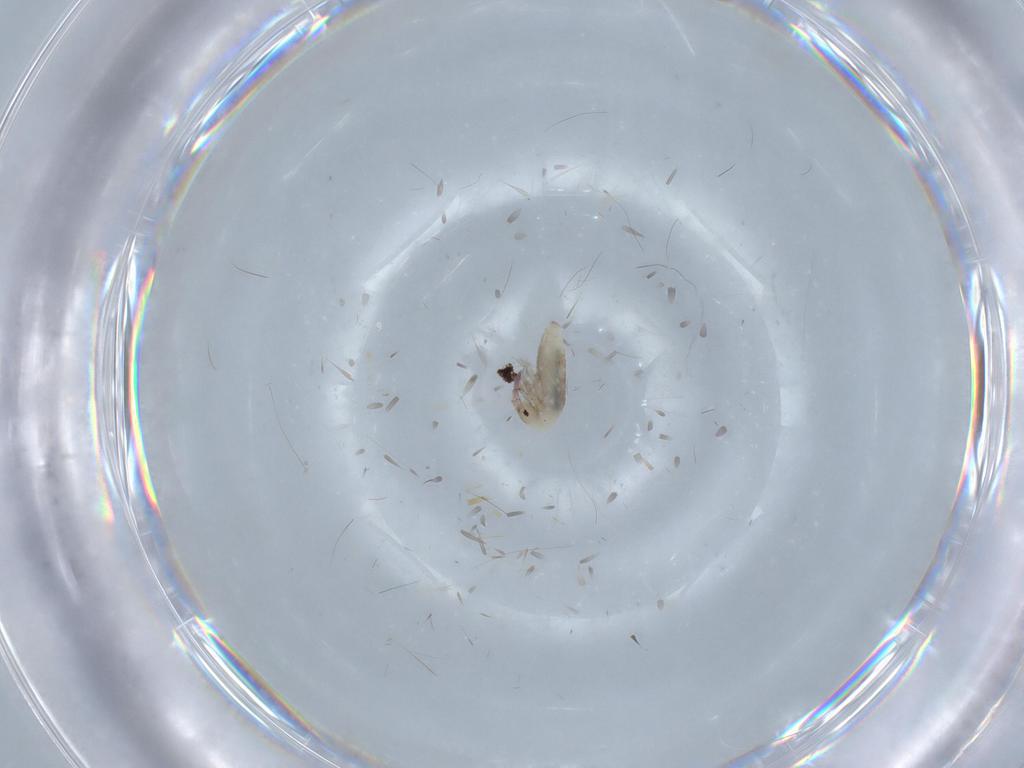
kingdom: Animalia
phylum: Arthropoda
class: Collembola
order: Entomobryomorpha
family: Entomobryidae
